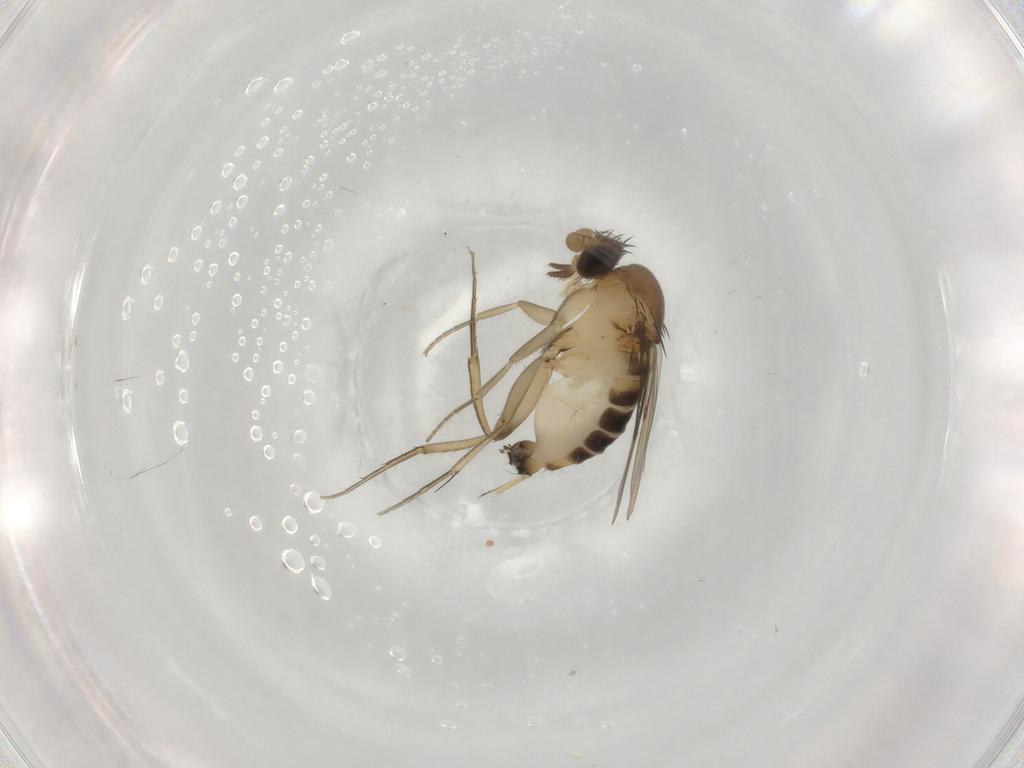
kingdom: Animalia
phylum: Arthropoda
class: Insecta
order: Diptera
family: Phoridae
